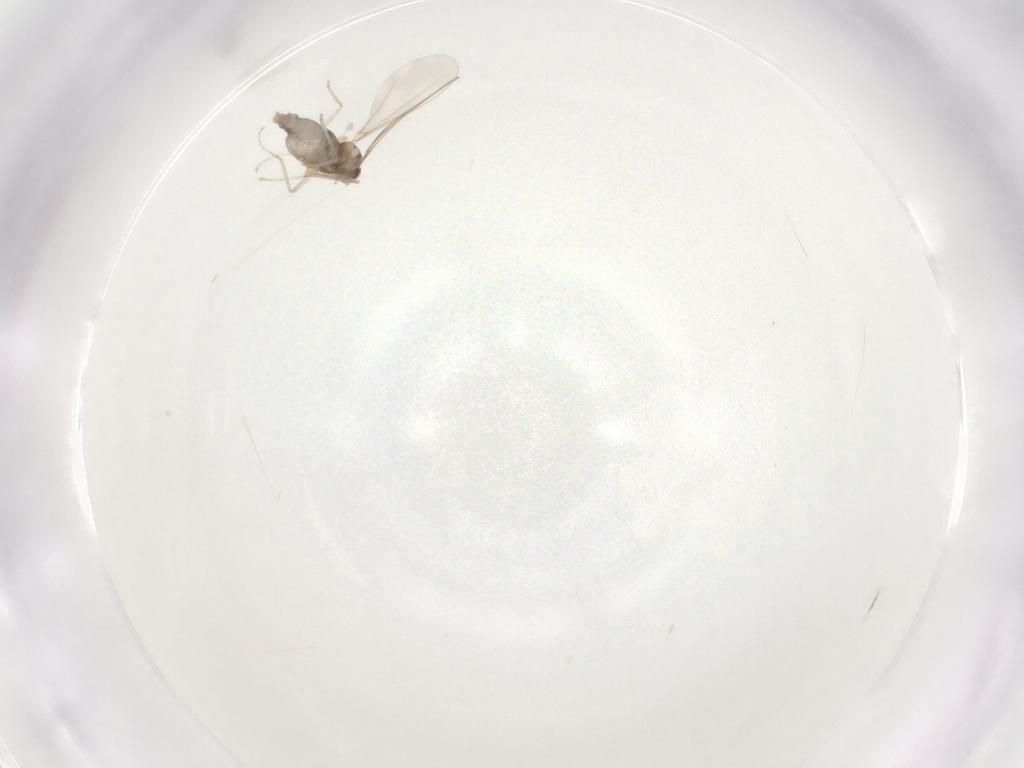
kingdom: Animalia
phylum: Arthropoda
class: Insecta
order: Diptera
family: Cecidomyiidae
